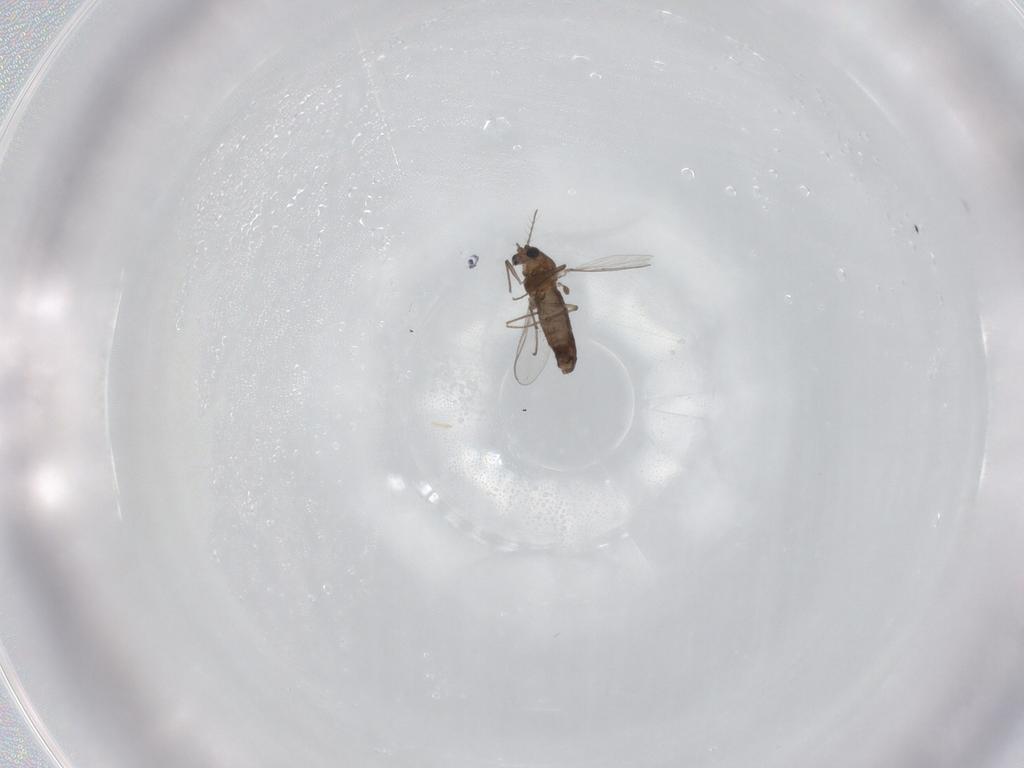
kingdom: Animalia
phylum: Arthropoda
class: Insecta
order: Diptera
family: Chironomidae
